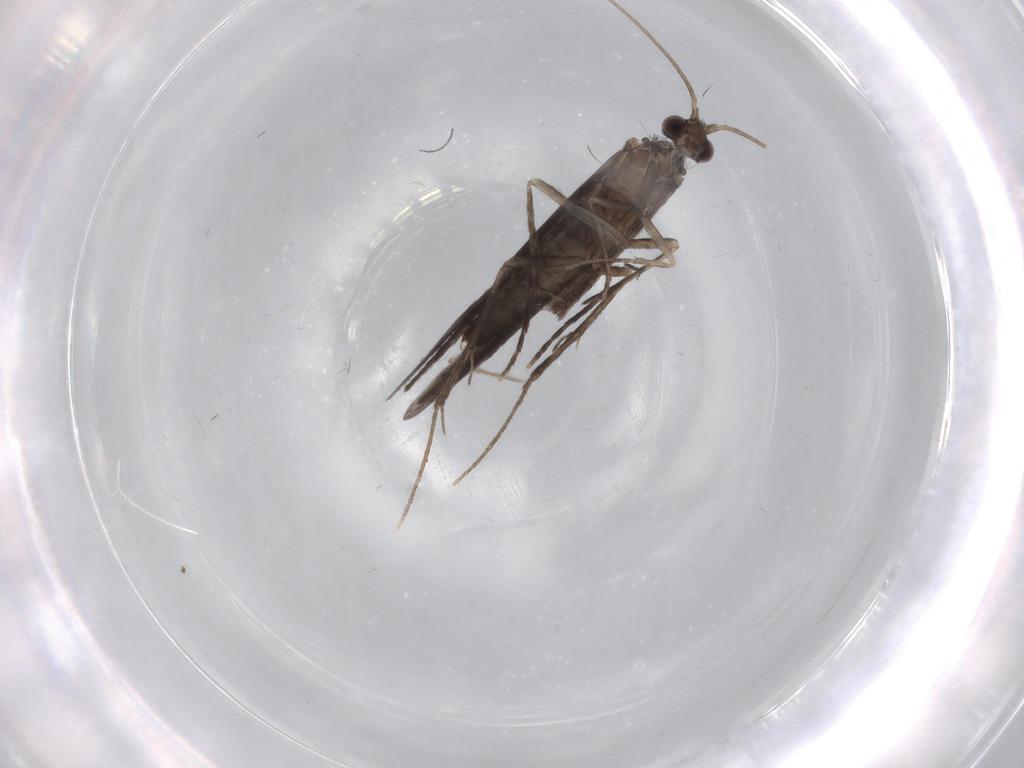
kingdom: Animalia
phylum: Arthropoda
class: Insecta
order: Trichoptera
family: Xiphocentronidae
